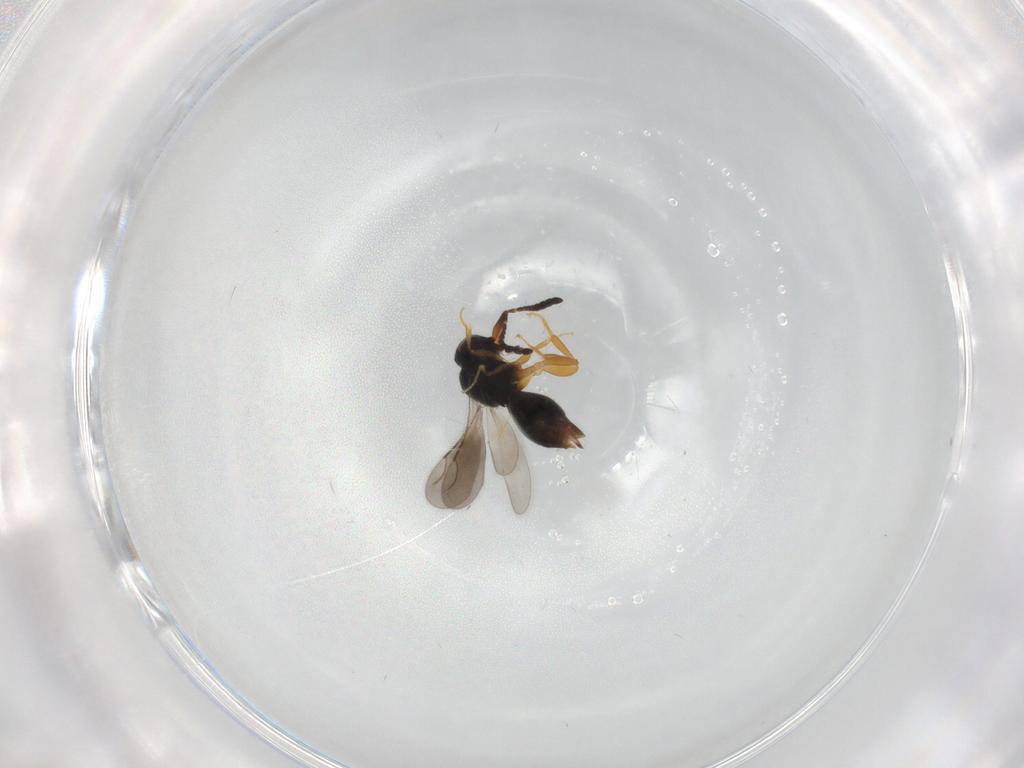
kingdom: Animalia
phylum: Arthropoda
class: Insecta
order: Hymenoptera
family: Ceraphronidae
